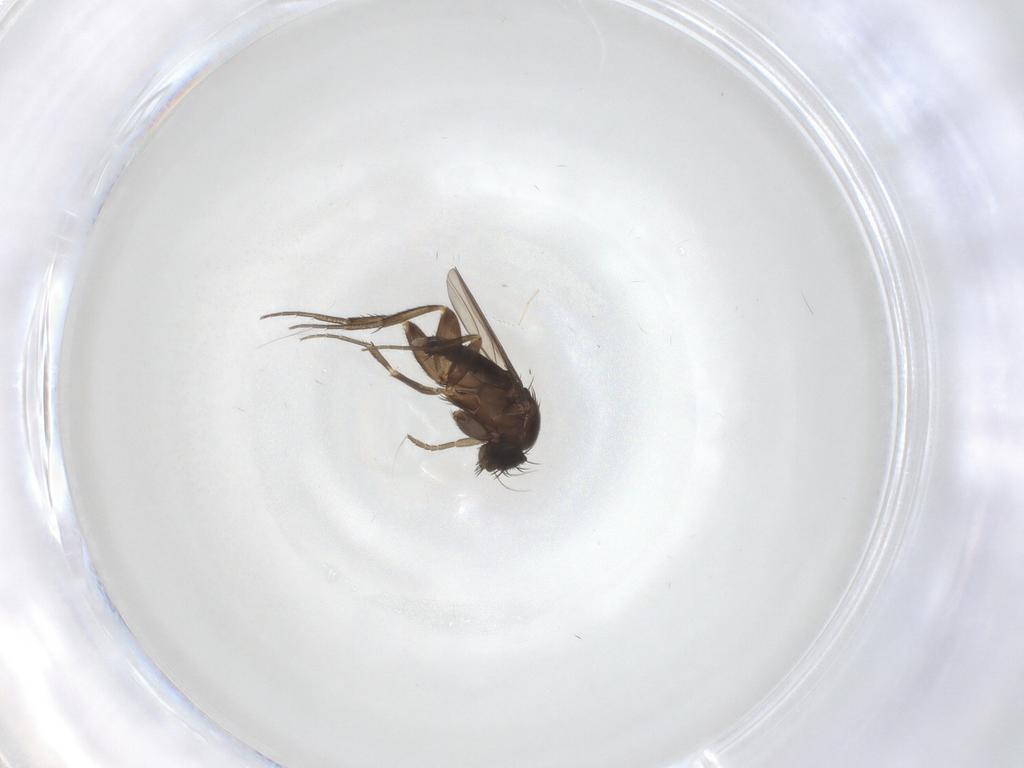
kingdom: Animalia
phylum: Arthropoda
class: Insecta
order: Diptera
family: Phoridae
